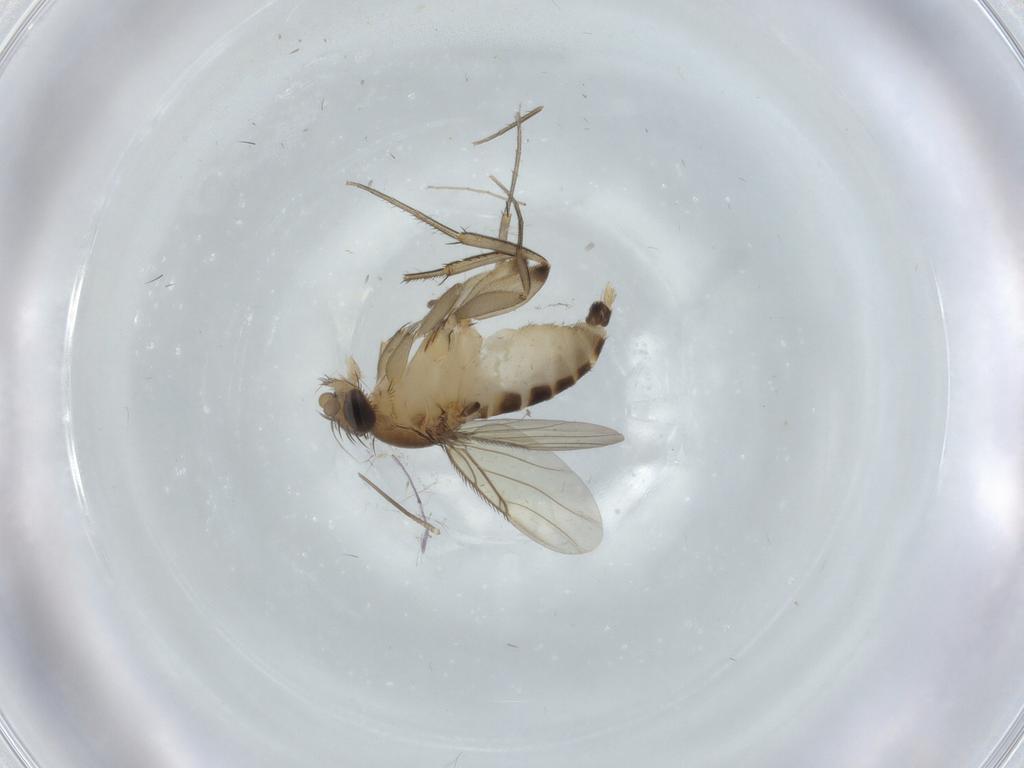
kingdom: Animalia
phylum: Arthropoda
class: Insecta
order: Diptera
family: Chironomidae
